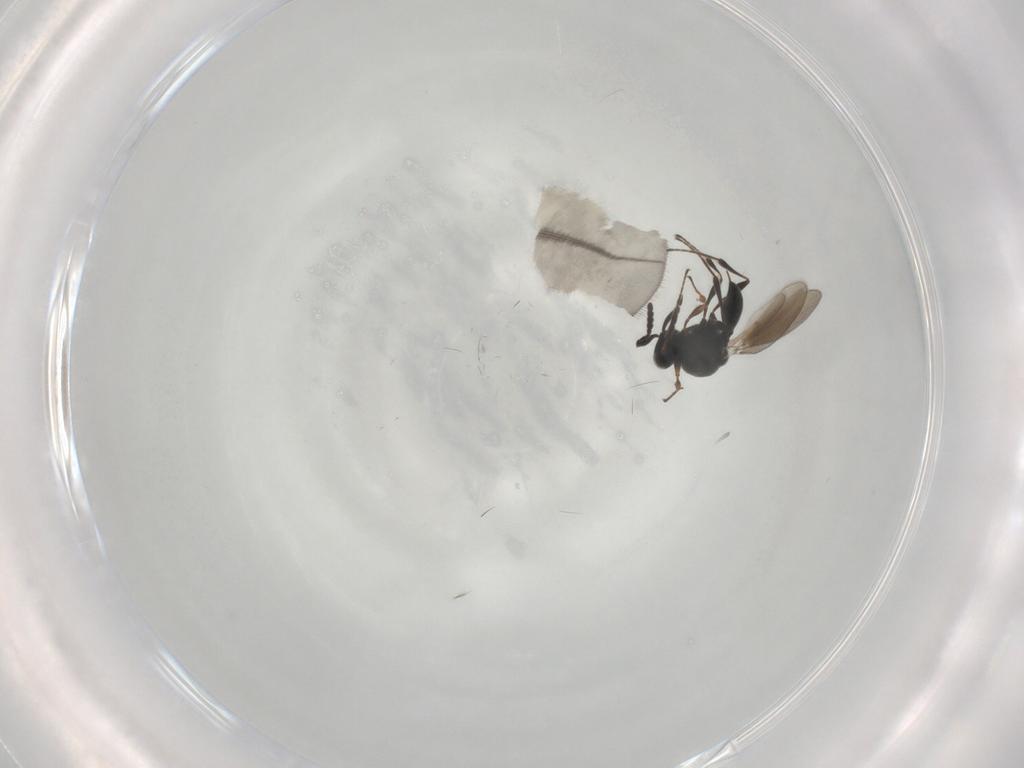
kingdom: Animalia
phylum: Arthropoda
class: Insecta
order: Hymenoptera
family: Platygastridae
